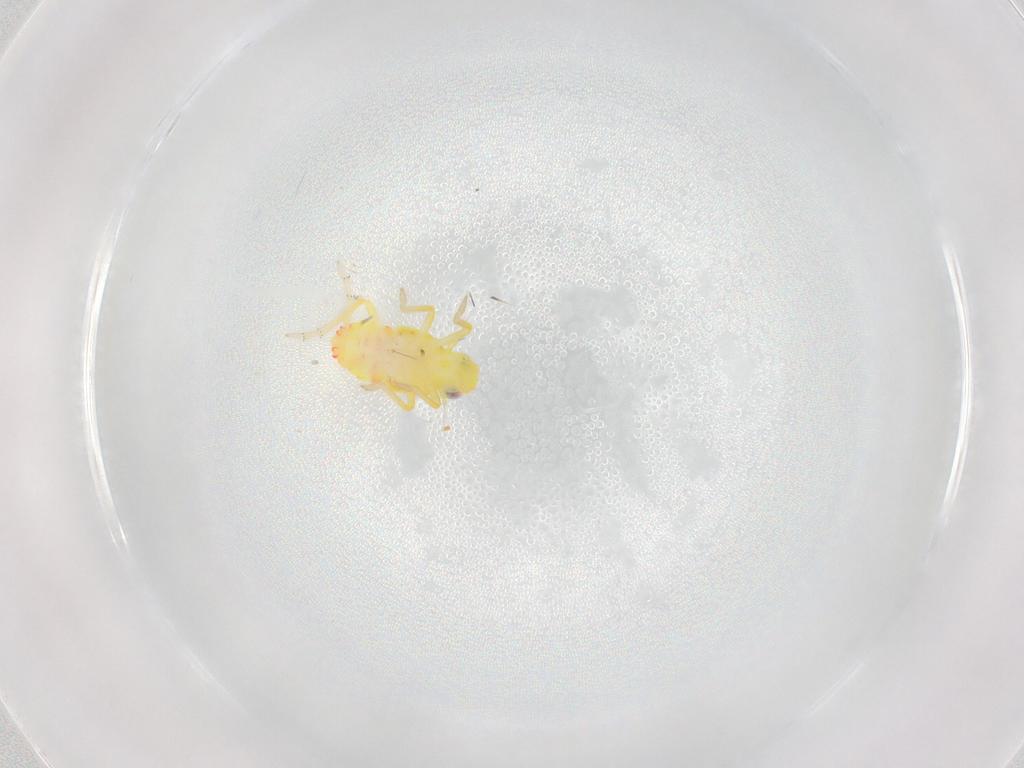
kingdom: Animalia
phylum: Arthropoda
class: Insecta
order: Hemiptera
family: Tropiduchidae
